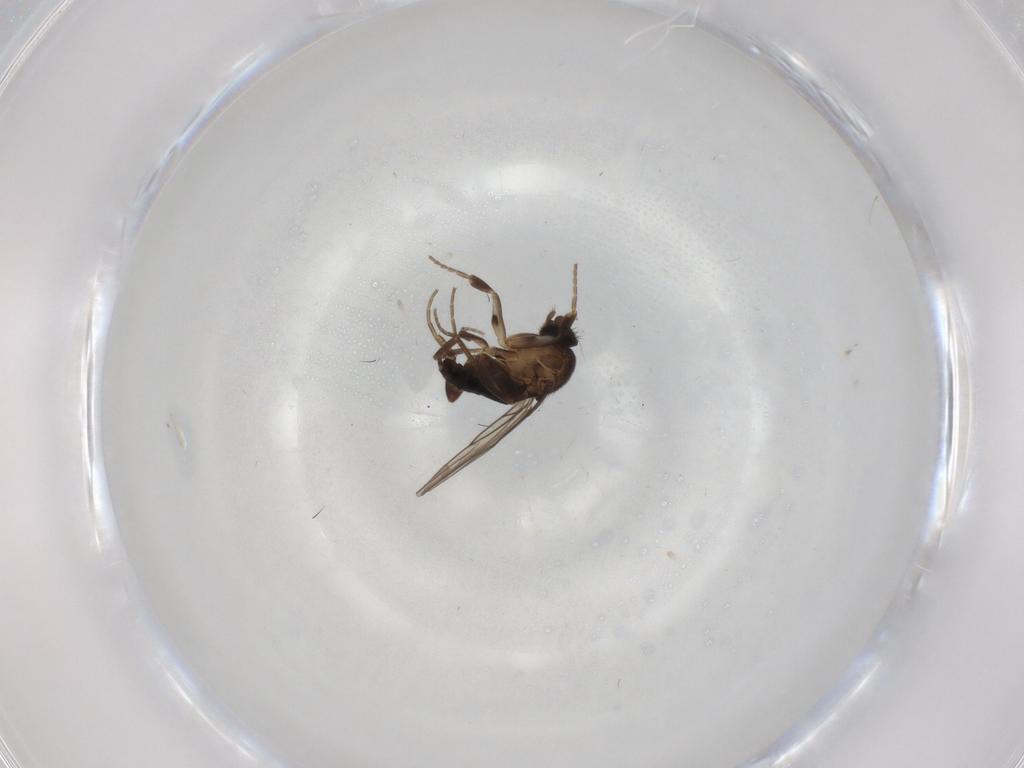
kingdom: Animalia
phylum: Arthropoda
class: Insecta
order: Diptera
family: Phoridae
